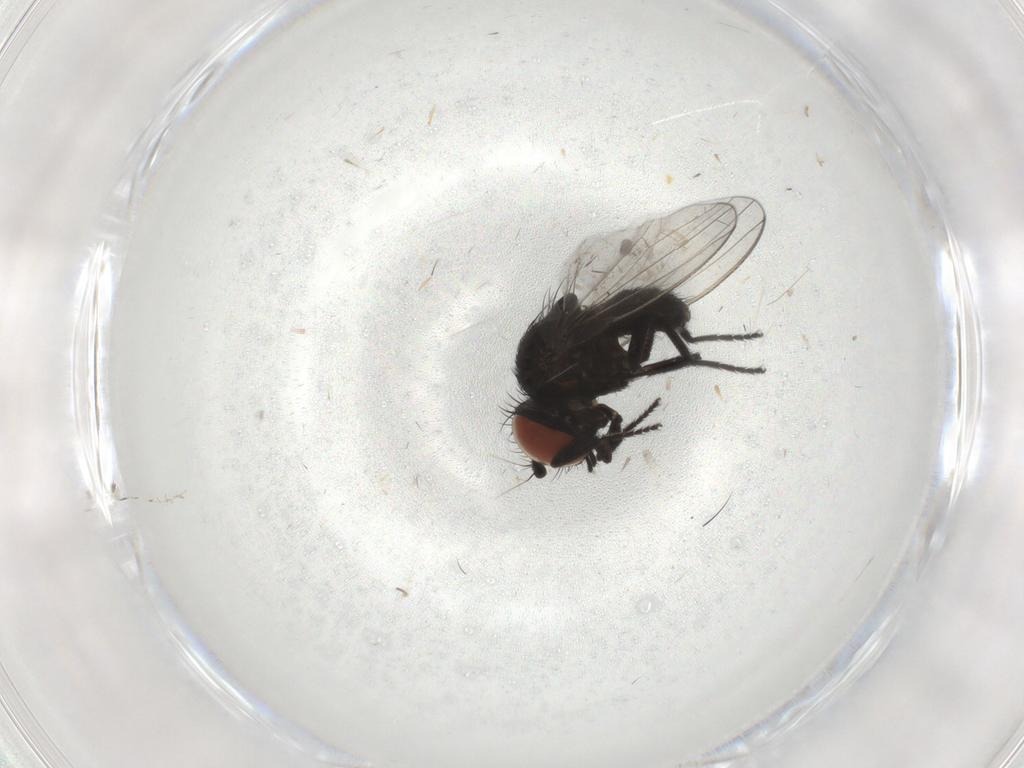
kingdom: Animalia
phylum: Arthropoda
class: Insecta
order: Diptera
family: Milichiidae
